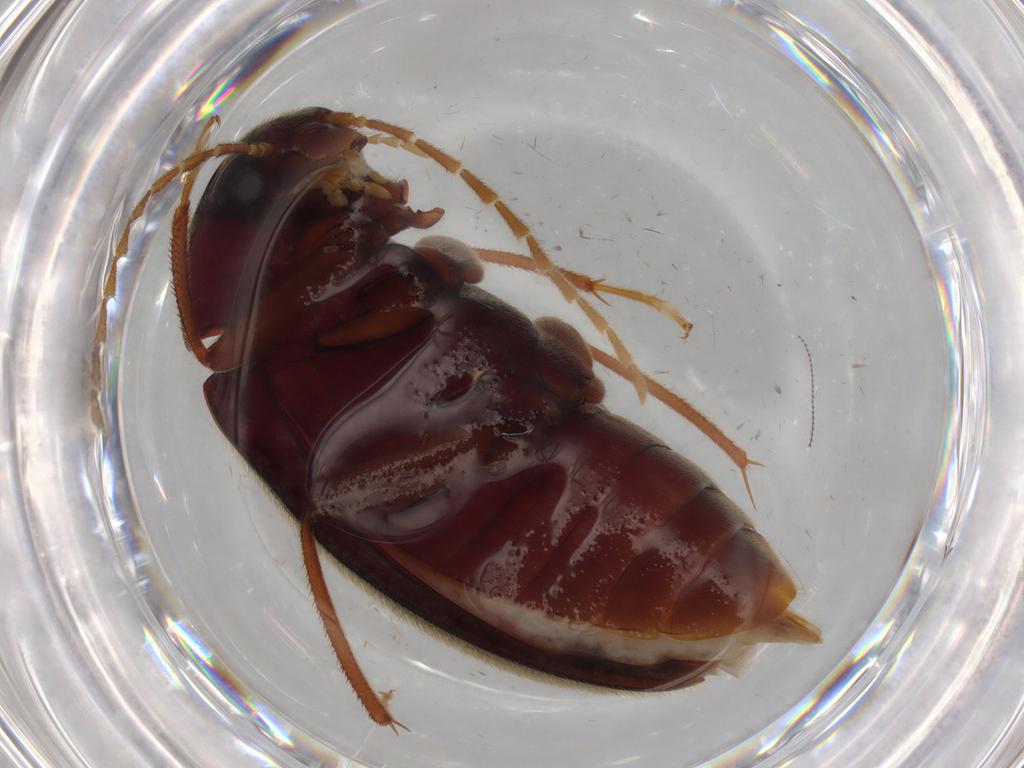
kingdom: Animalia
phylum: Arthropoda
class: Insecta
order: Coleoptera
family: Ptilodactylidae
